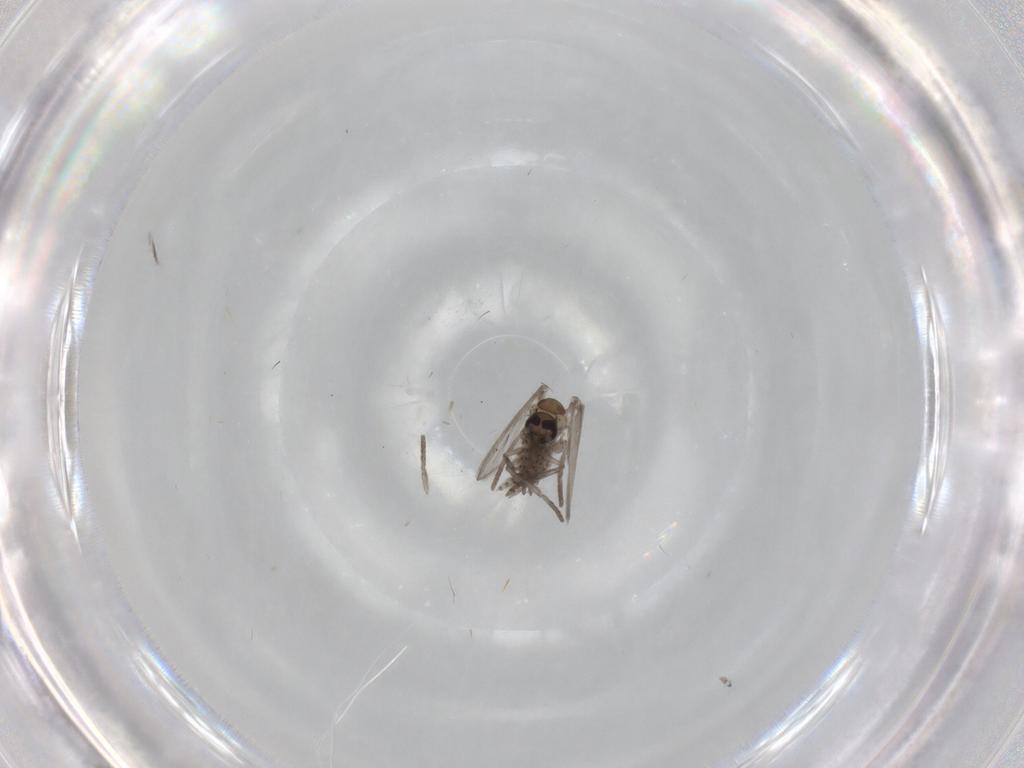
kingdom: Animalia
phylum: Arthropoda
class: Insecta
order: Diptera
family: Psychodidae
